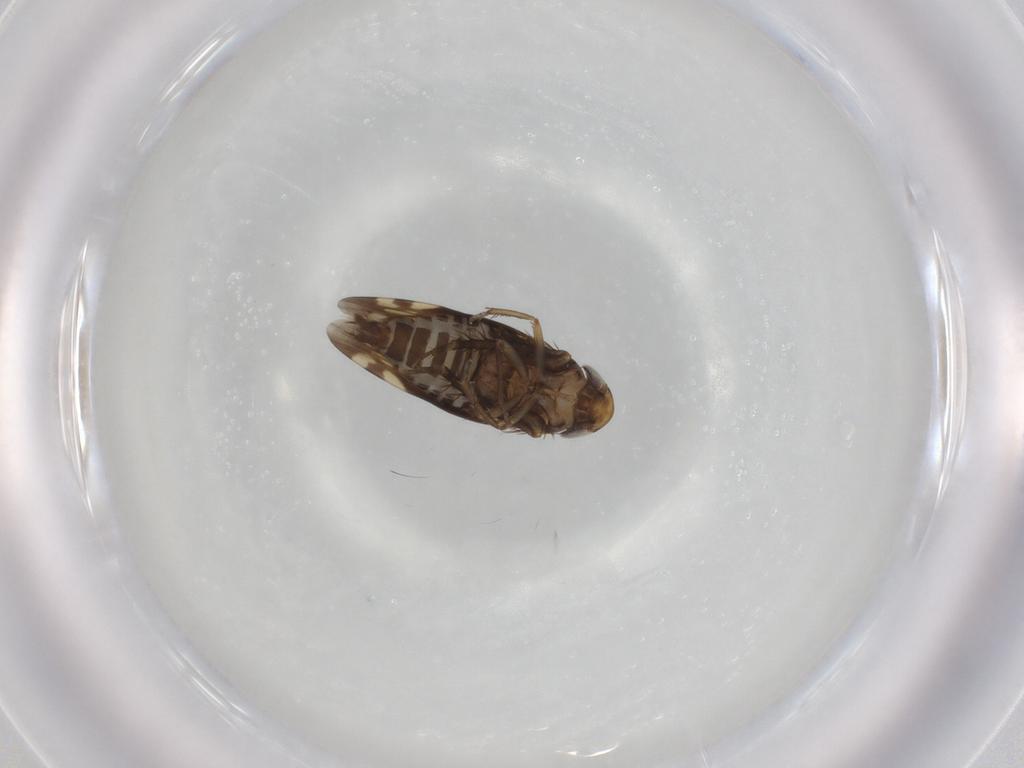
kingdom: Animalia
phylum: Arthropoda
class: Insecta
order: Hemiptera
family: Cicadellidae
